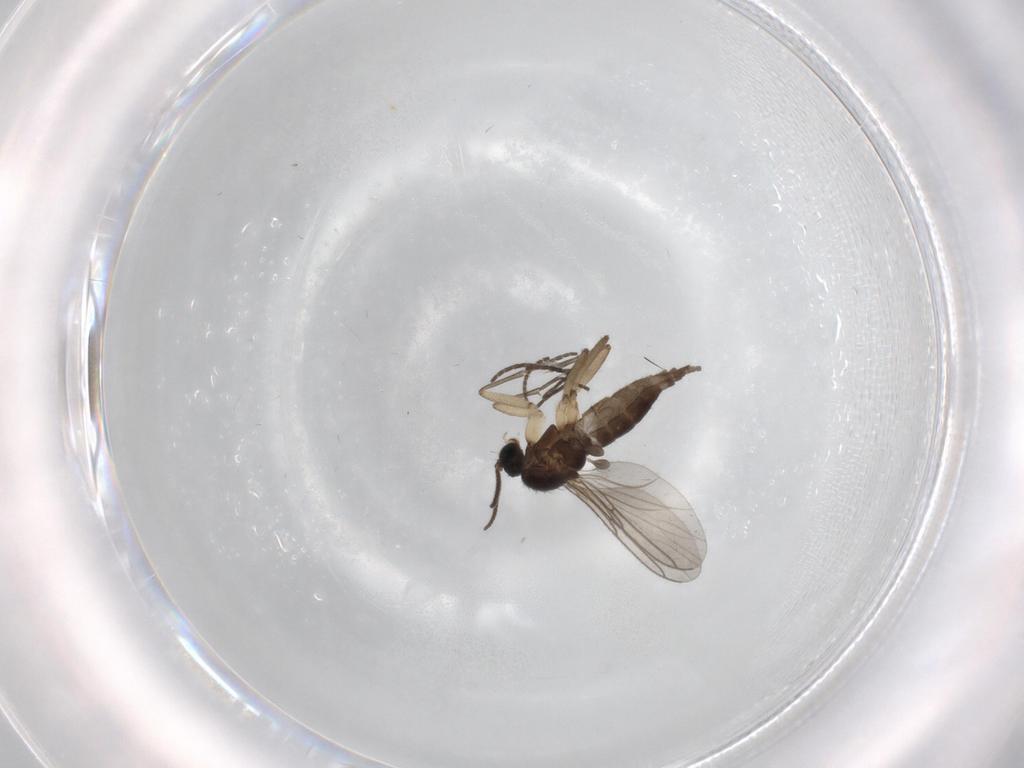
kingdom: Animalia
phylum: Arthropoda
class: Insecta
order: Diptera
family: Sciaridae
